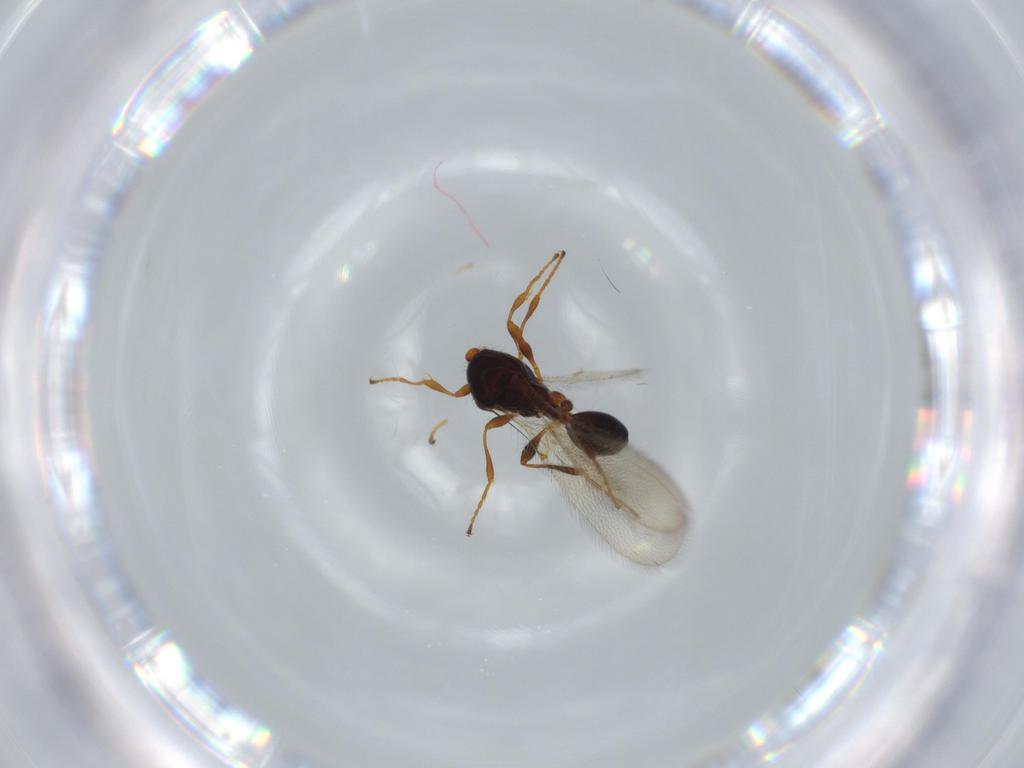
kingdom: Animalia
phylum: Arthropoda
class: Insecta
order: Hymenoptera
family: Diapriidae
